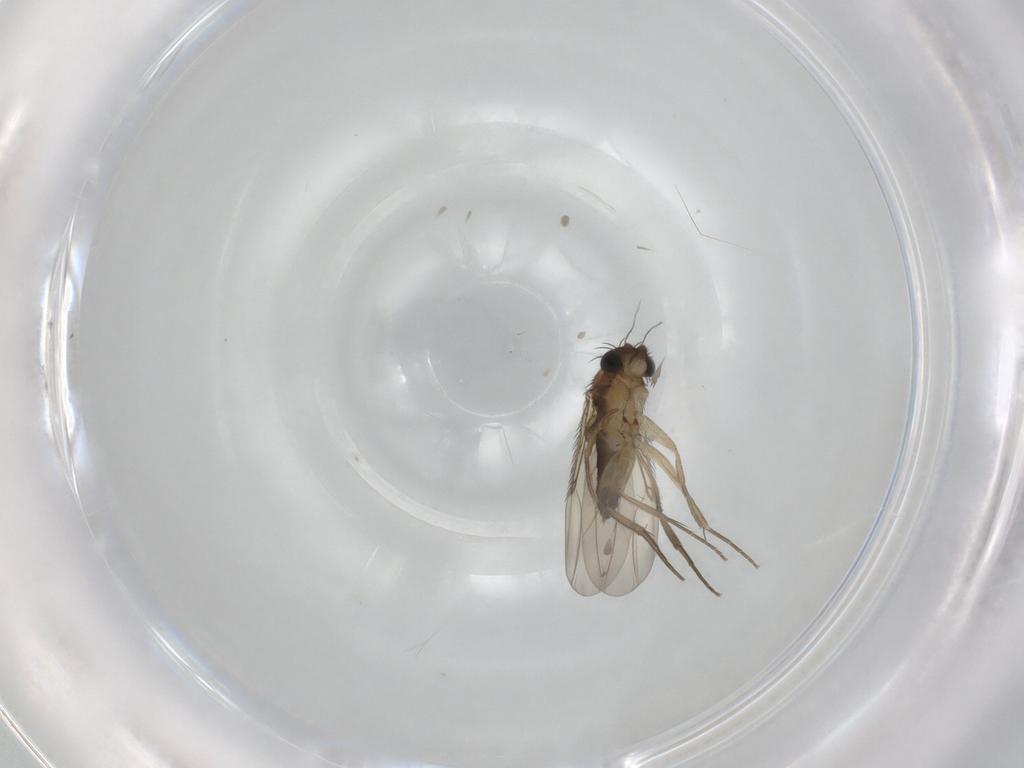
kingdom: Animalia
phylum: Arthropoda
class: Insecta
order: Diptera
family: Phoridae
